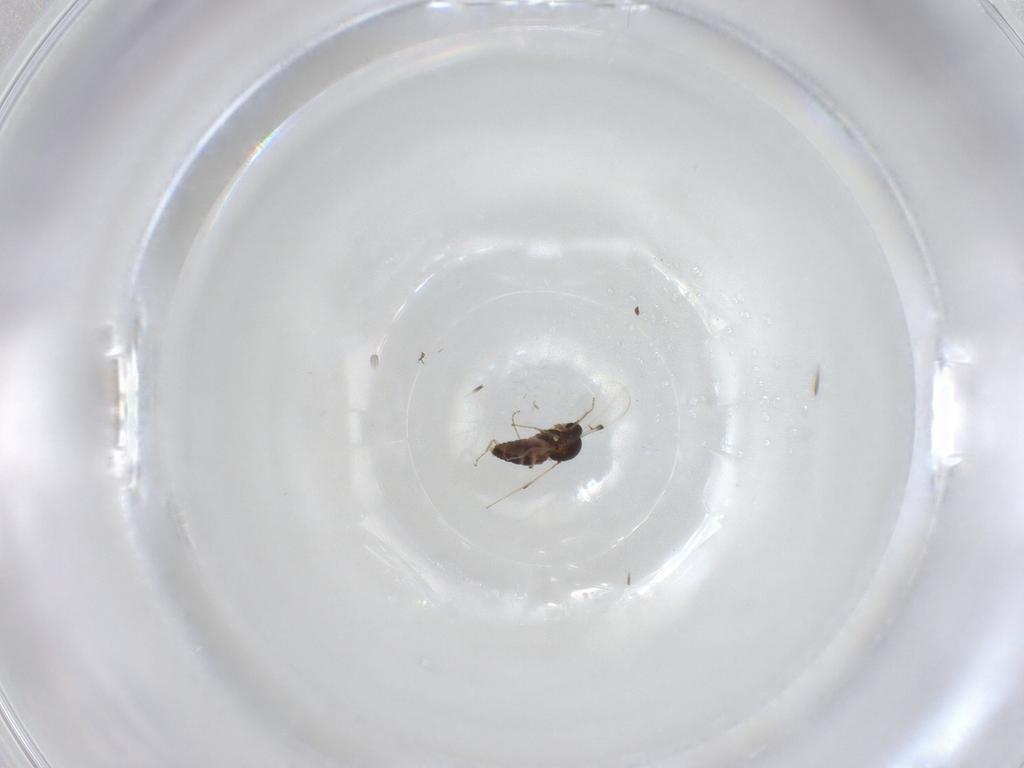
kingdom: Animalia
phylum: Arthropoda
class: Insecta
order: Diptera
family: Chironomidae
